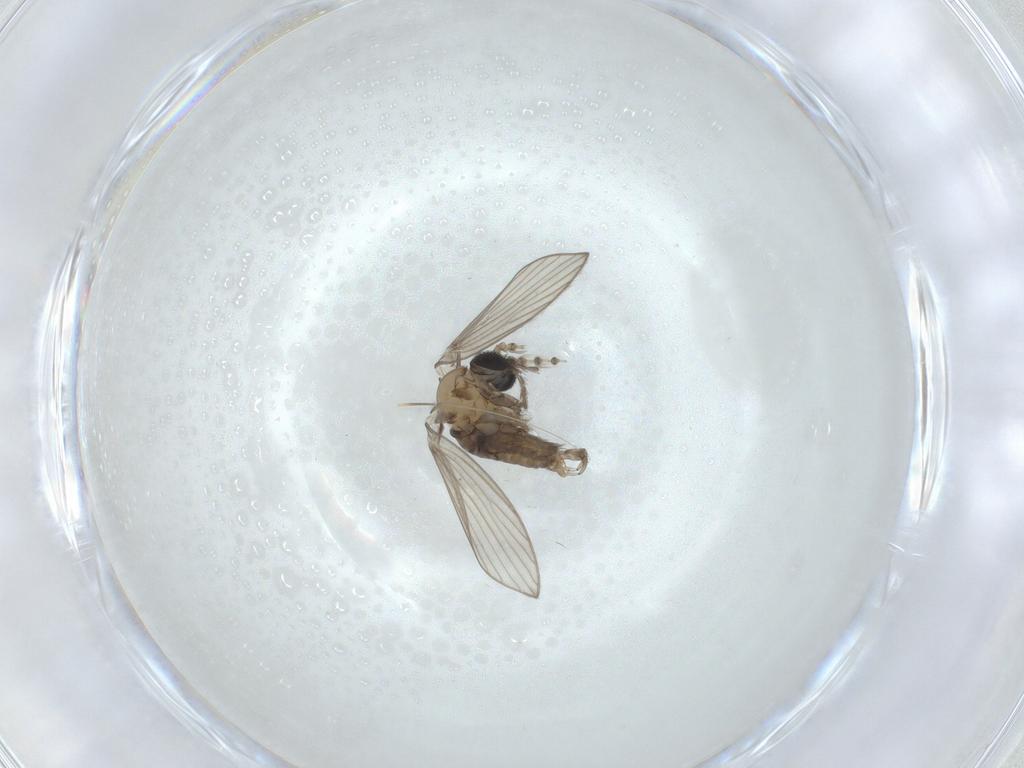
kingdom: Animalia
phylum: Arthropoda
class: Insecta
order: Diptera
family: Psychodidae
